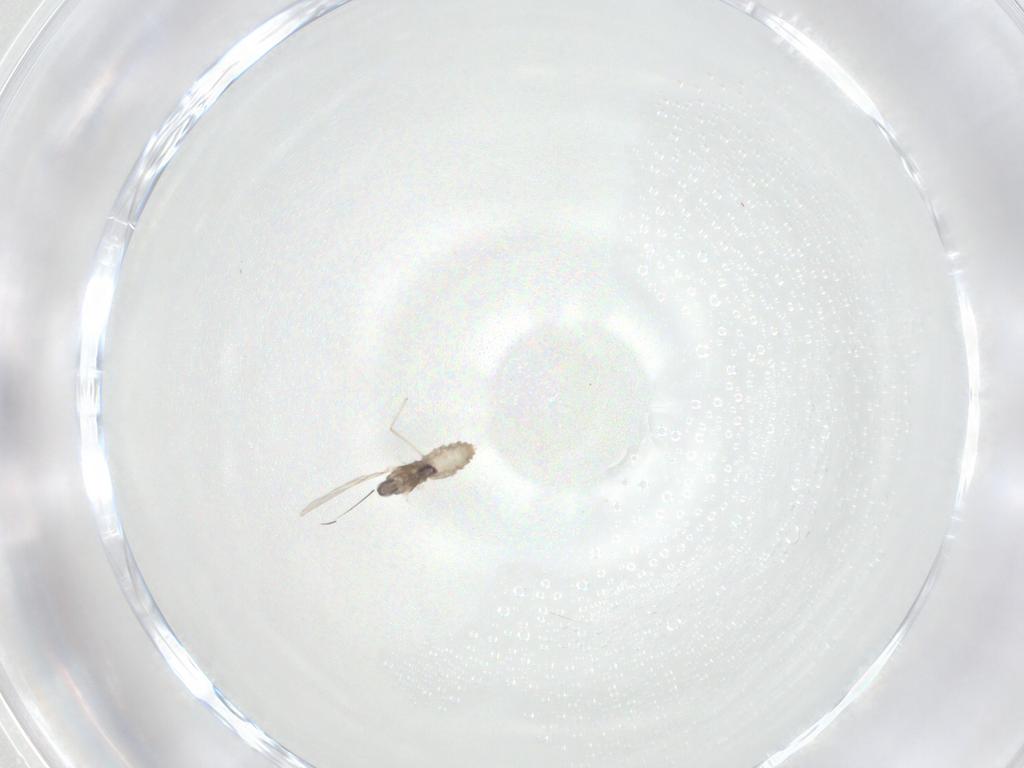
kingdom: Animalia
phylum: Arthropoda
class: Insecta
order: Diptera
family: Cecidomyiidae
